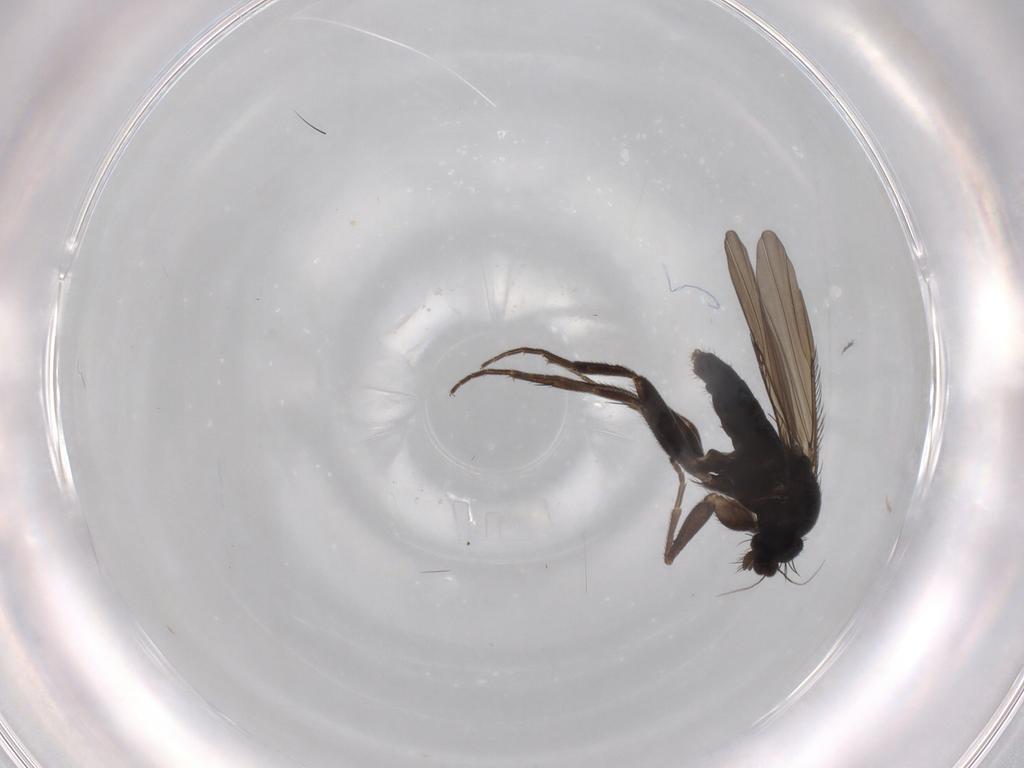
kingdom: Animalia
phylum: Arthropoda
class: Insecta
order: Diptera
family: Phoridae
